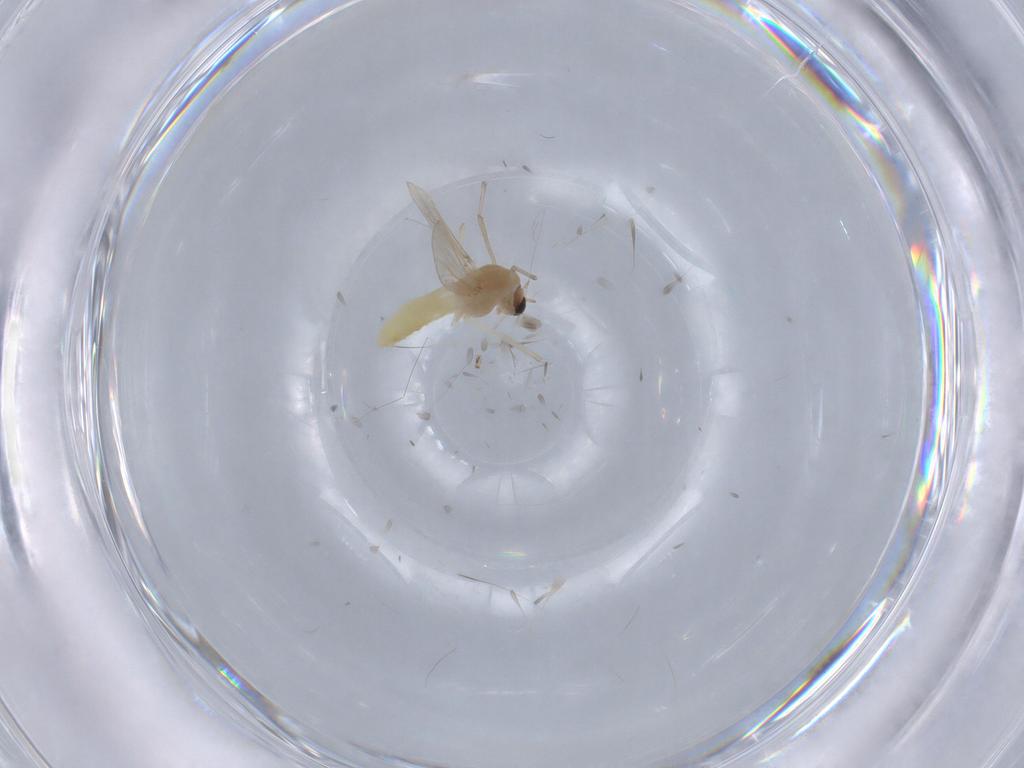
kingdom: Animalia
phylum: Arthropoda
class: Insecta
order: Diptera
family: Chironomidae
